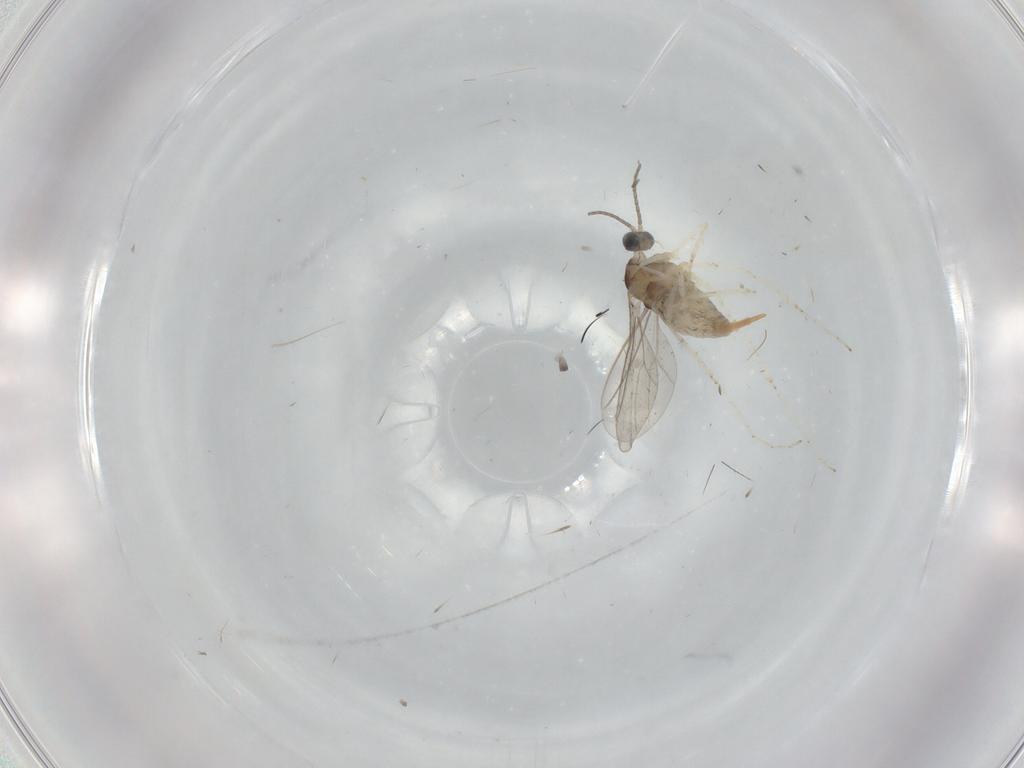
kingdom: Animalia
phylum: Arthropoda
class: Insecta
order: Diptera
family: Cecidomyiidae
